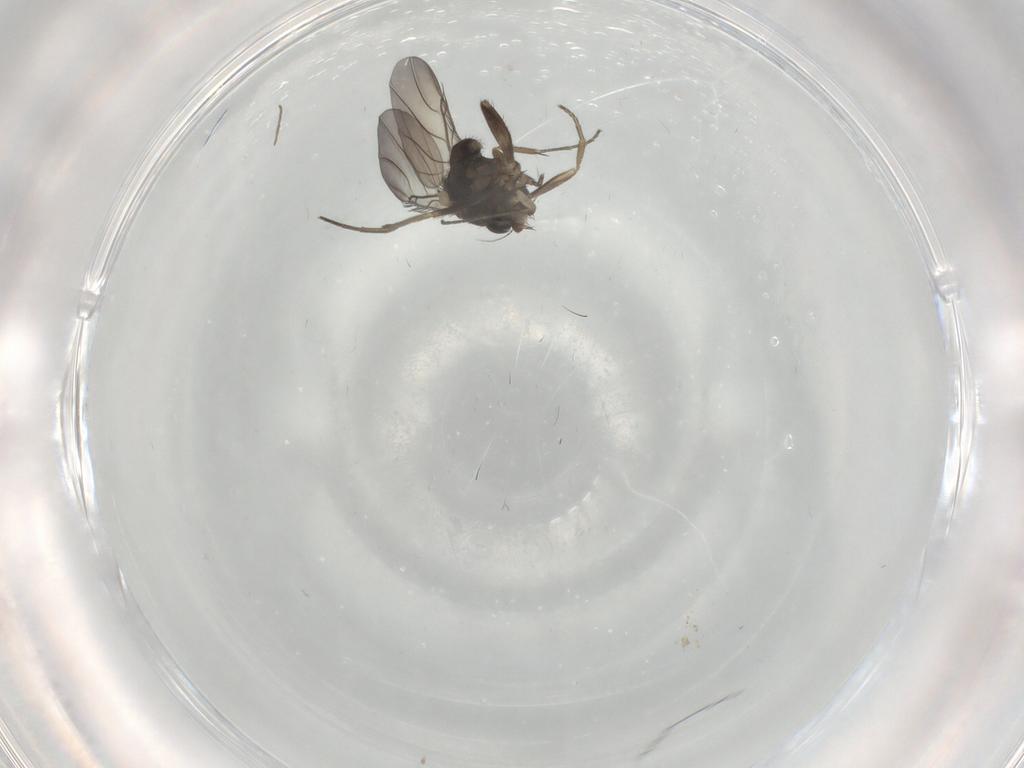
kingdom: Animalia
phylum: Arthropoda
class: Insecta
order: Diptera
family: Phoridae
